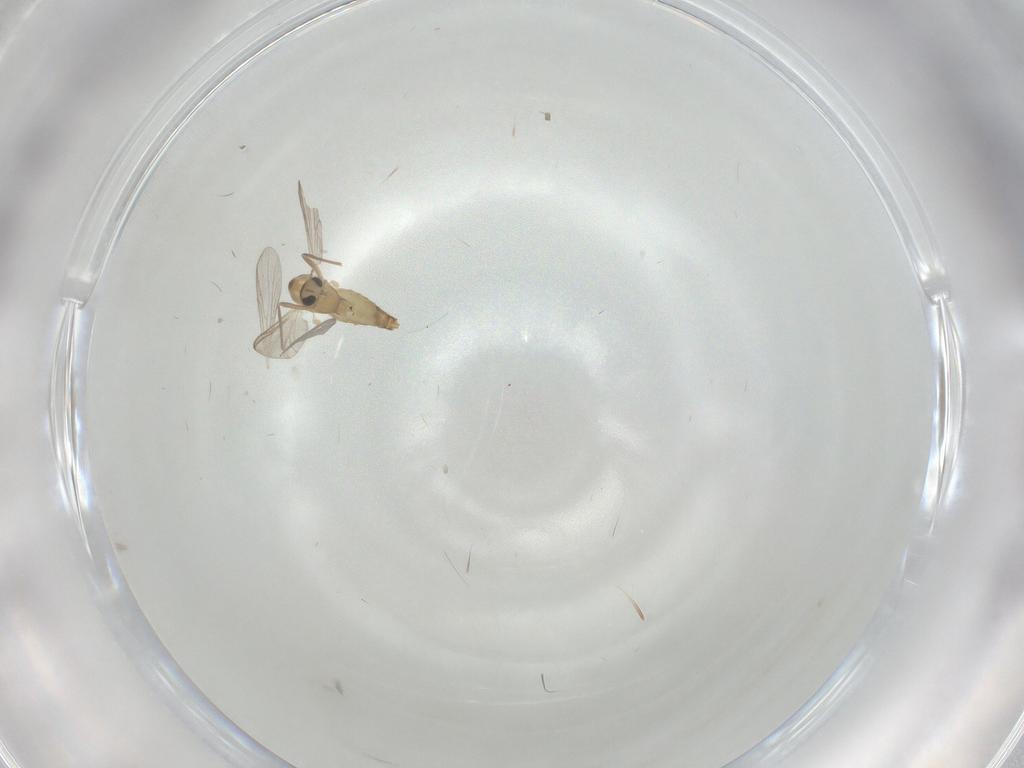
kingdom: Animalia
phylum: Arthropoda
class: Insecta
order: Diptera
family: Chironomidae
